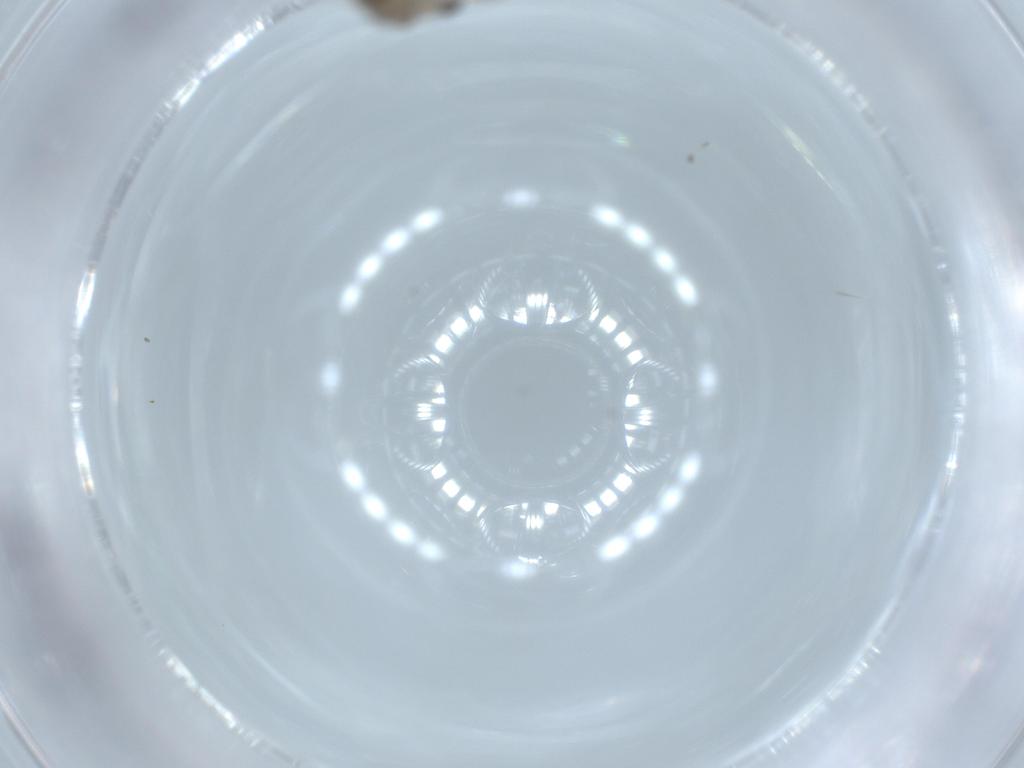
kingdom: Animalia
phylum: Arthropoda
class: Insecta
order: Diptera
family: Phoridae
